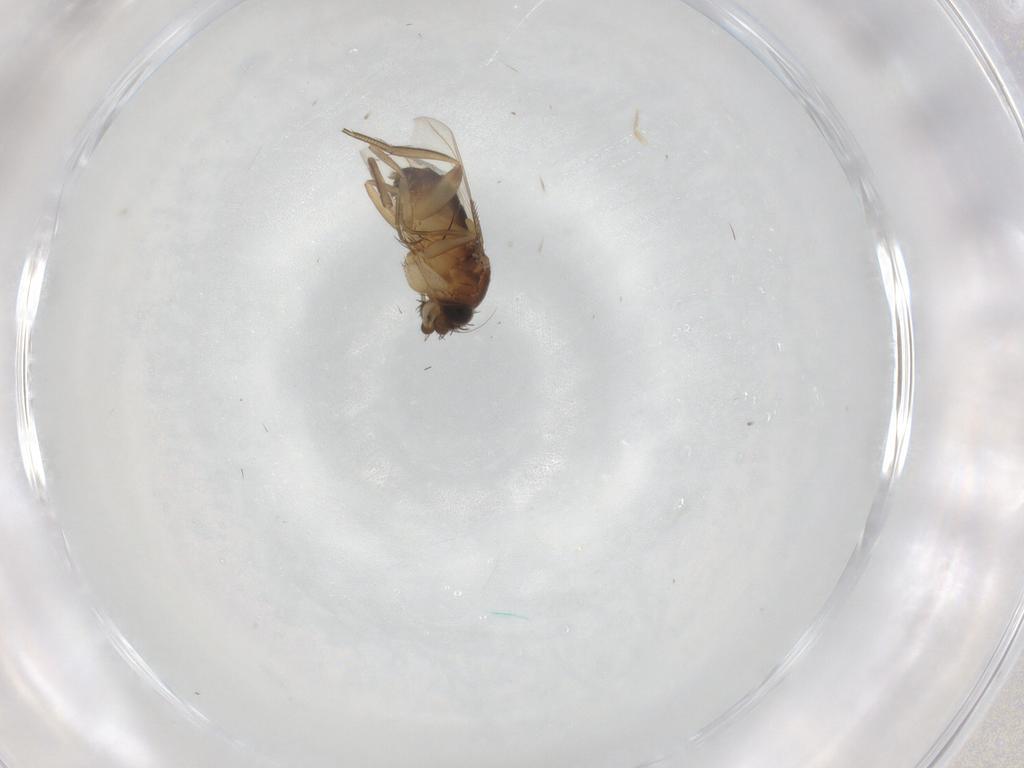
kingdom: Animalia
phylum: Arthropoda
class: Insecta
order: Diptera
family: Phoridae
